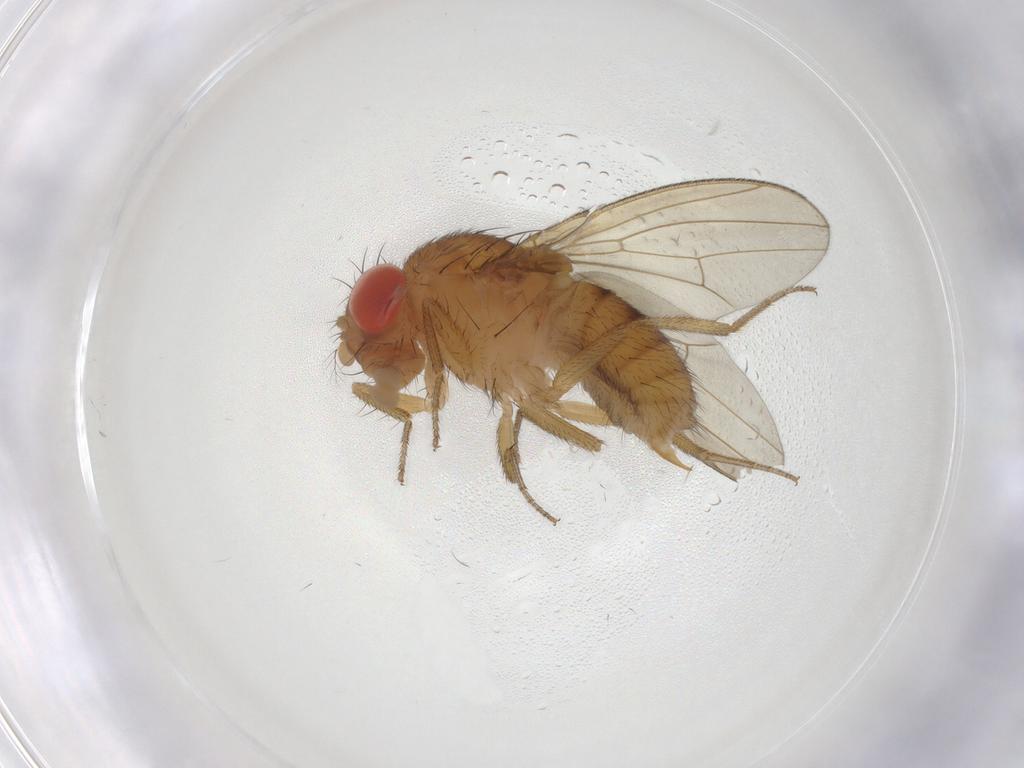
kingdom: Animalia
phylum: Arthropoda
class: Insecta
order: Diptera
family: Drosophilidae
